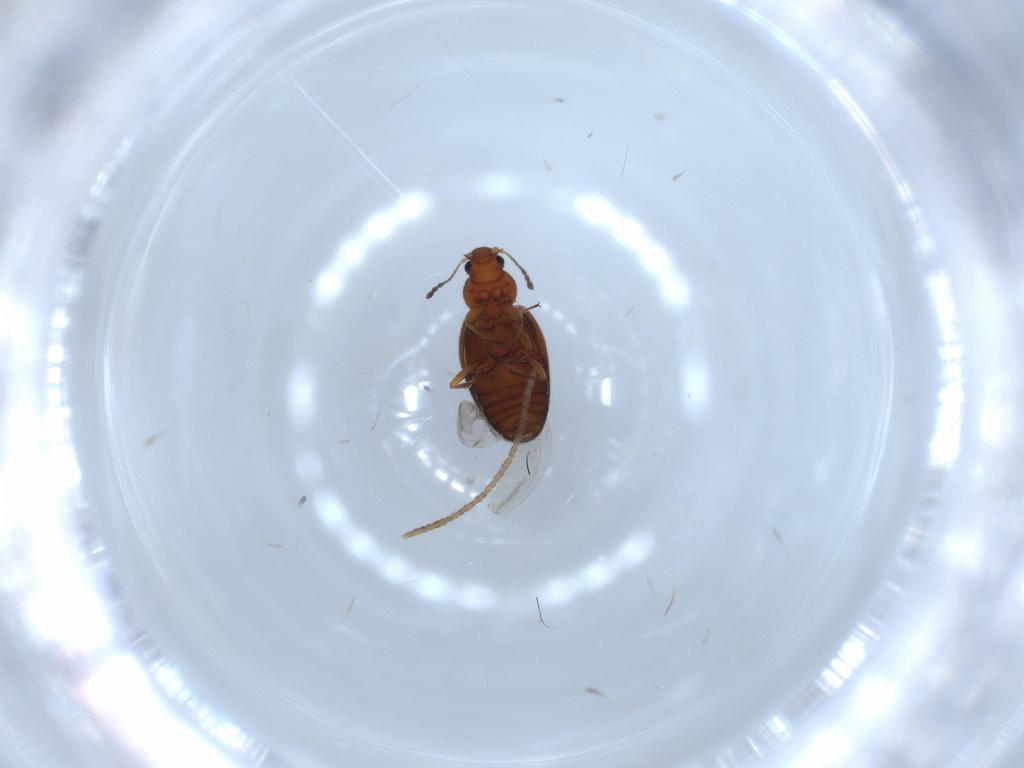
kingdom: Animalia
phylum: Arthropoda
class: Insecta
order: Coleoptera
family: Latridiidae
